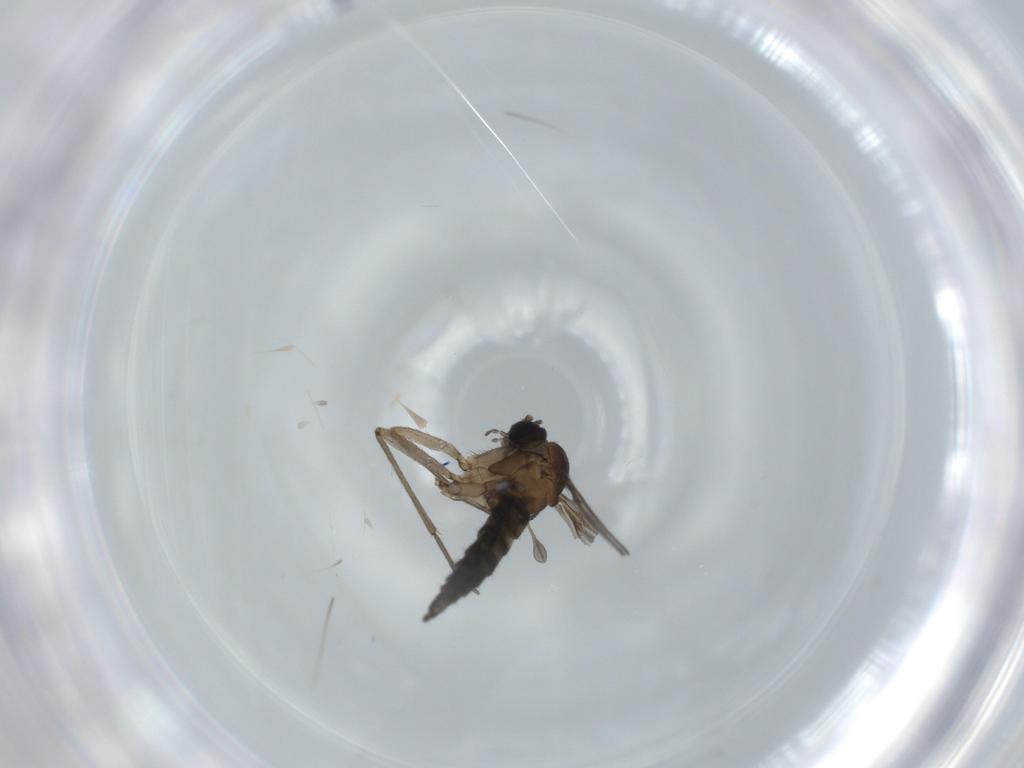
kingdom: Animalia
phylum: Arthropoda
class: Insecta
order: Diptera
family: Sciaridae
